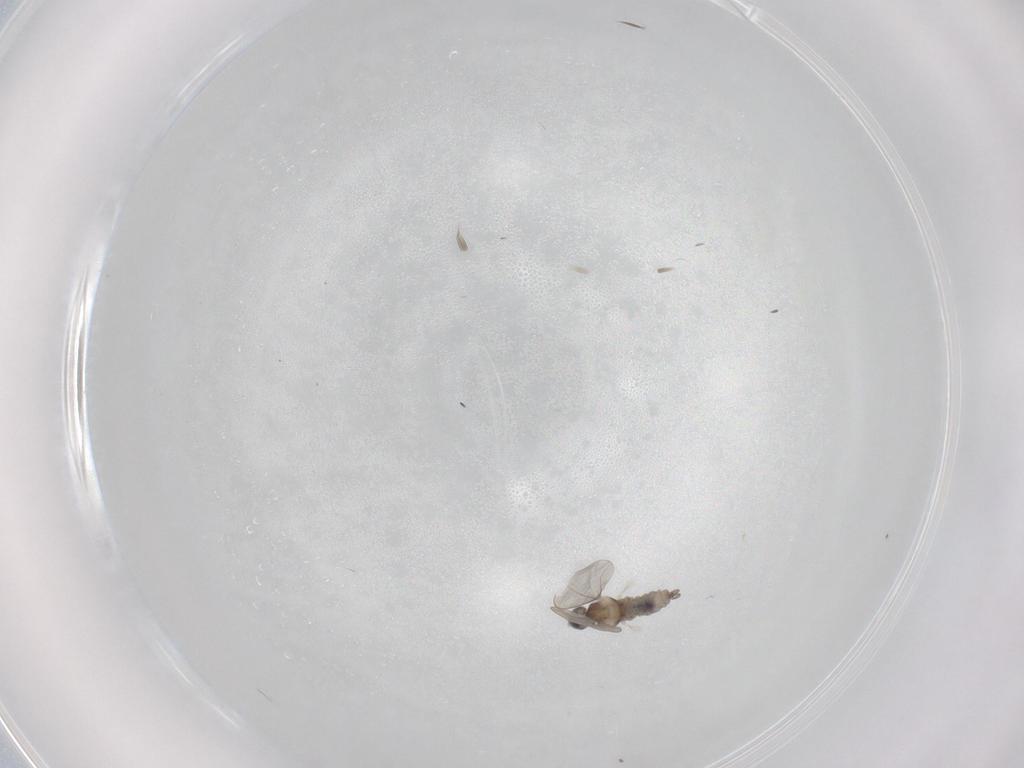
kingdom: Animalia
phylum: Arthropoda
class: Insecta
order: Diptera
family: Cecidomyiidae
